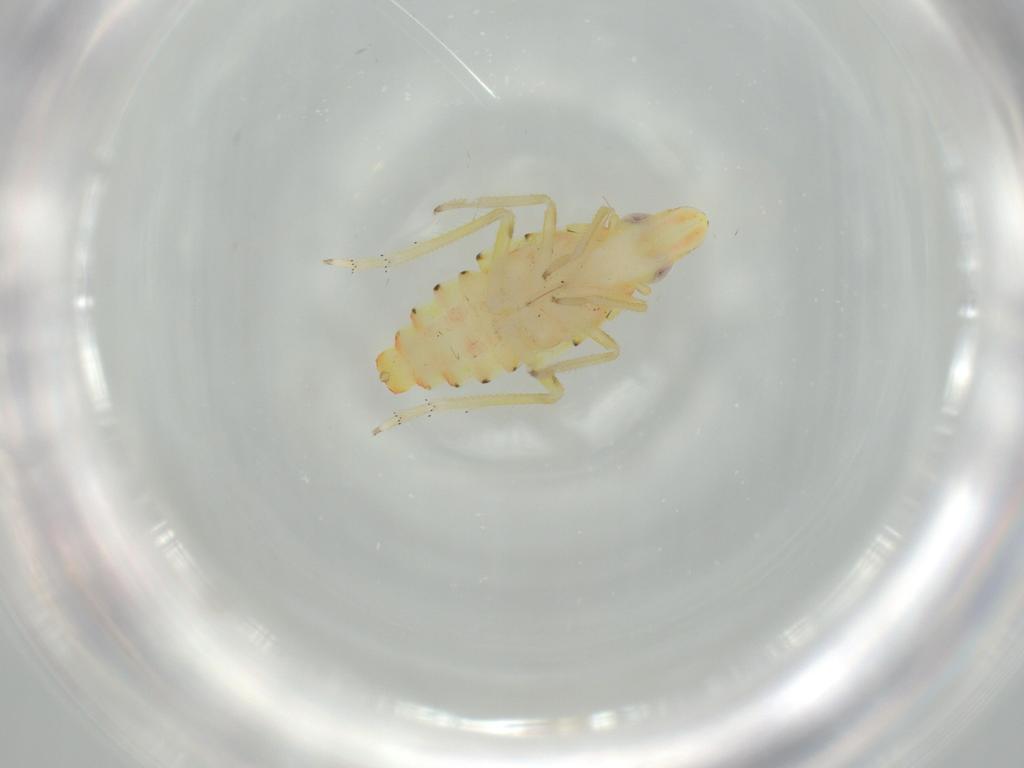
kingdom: Animalia
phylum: Arthropoda
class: Insecta
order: Hemiptera
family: Tropiduchidae
